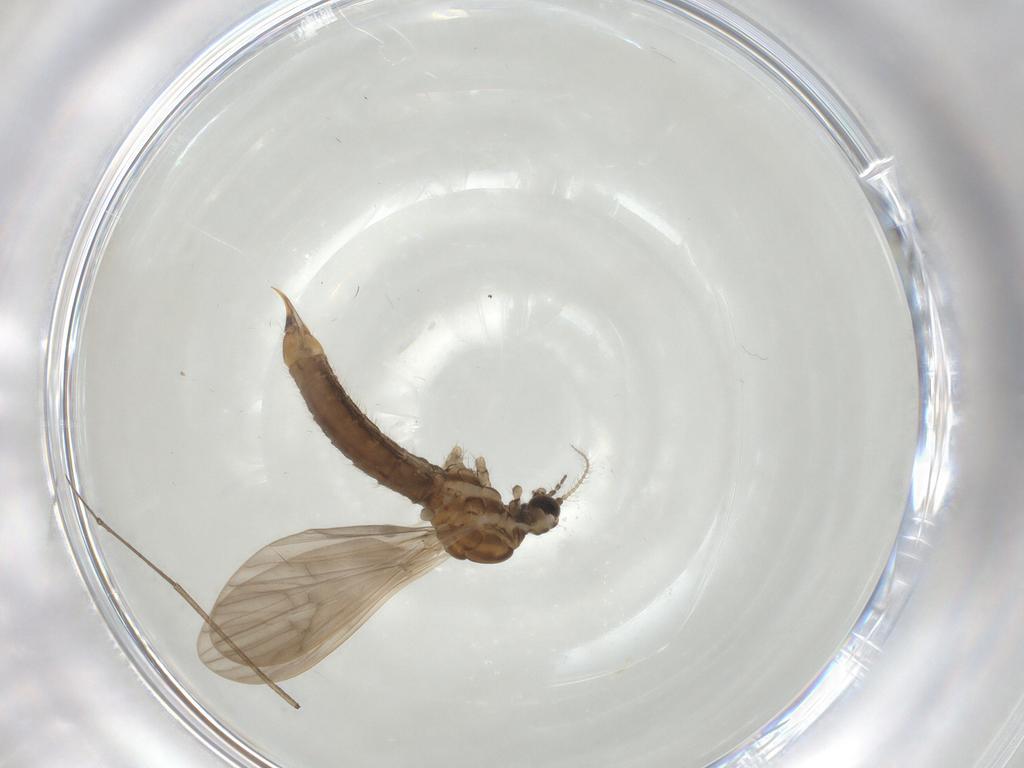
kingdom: Animalia
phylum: Arthropoda
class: Insecta
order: Diptera
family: Limoniidae
